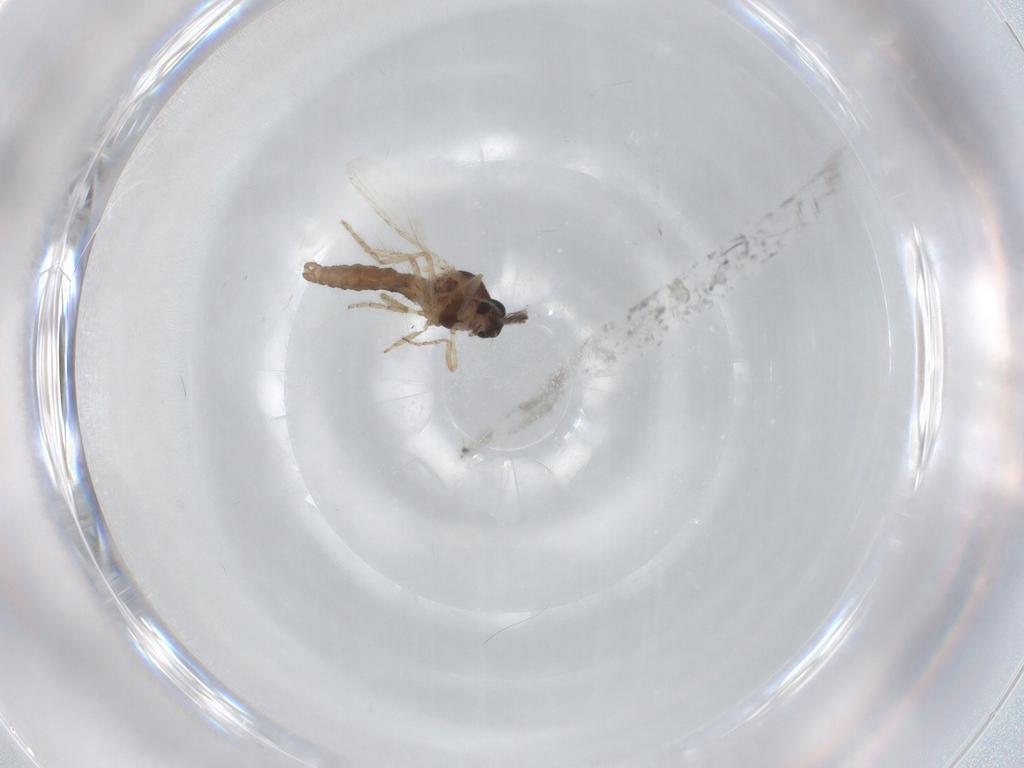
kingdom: Animalia
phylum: Arthropoda
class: Insecta
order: Diptera
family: Ceratopogonidae
